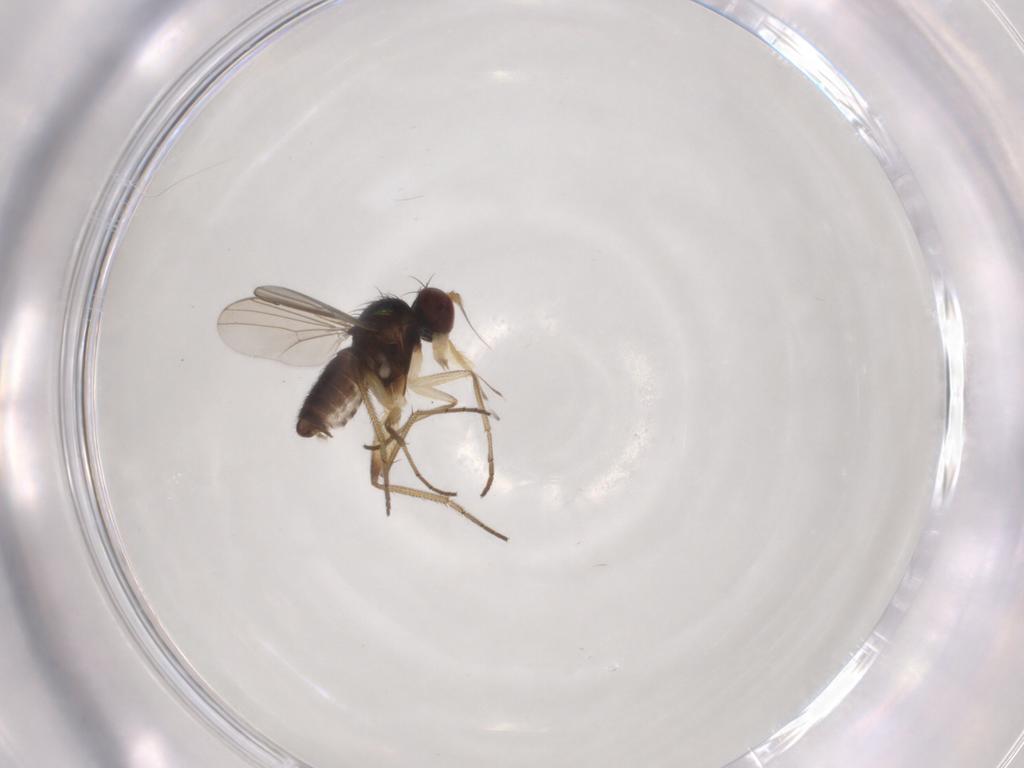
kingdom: Animalia
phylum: Arthropoda
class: Insecta
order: Diptera
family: Dolichopodidae
